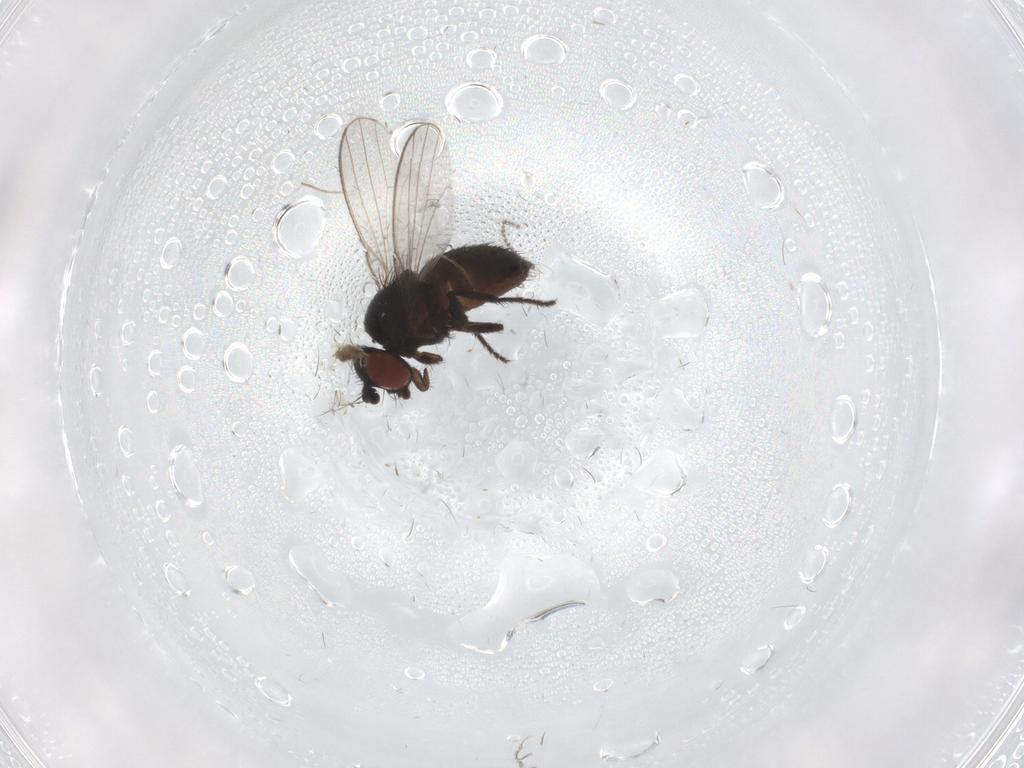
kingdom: Animalia
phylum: Arthropoda
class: Insecta
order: Diptera
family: Milichiidae
